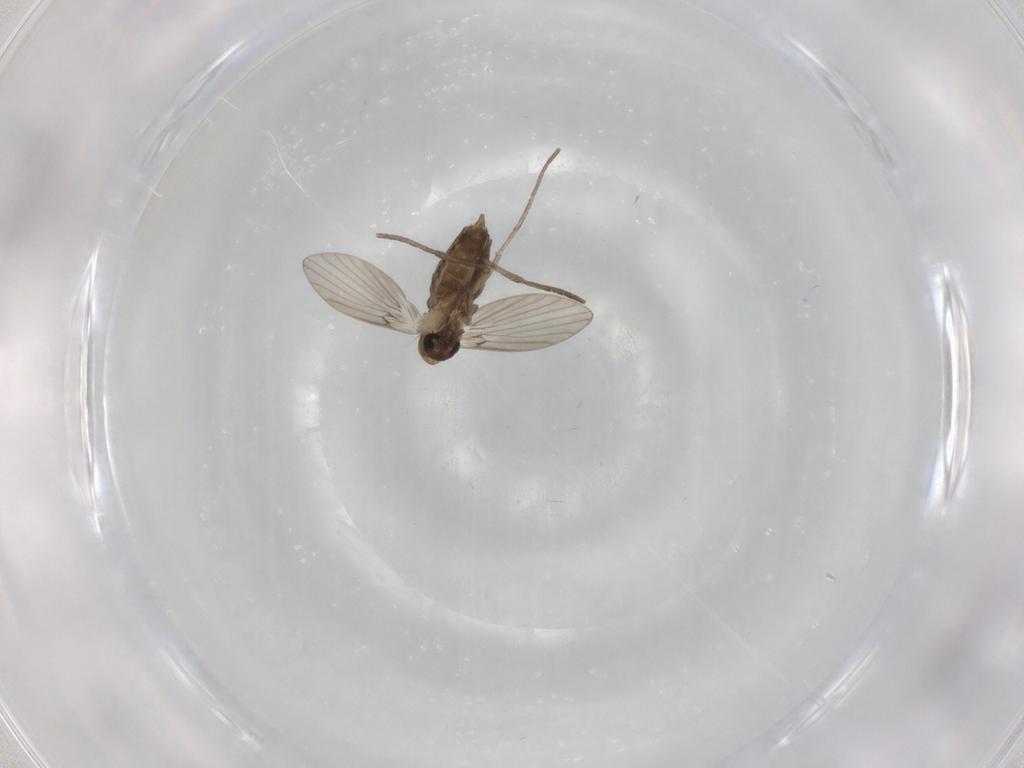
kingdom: Animalia
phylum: Arthropoda
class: Insecta
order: Diptera
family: Psychodidae
